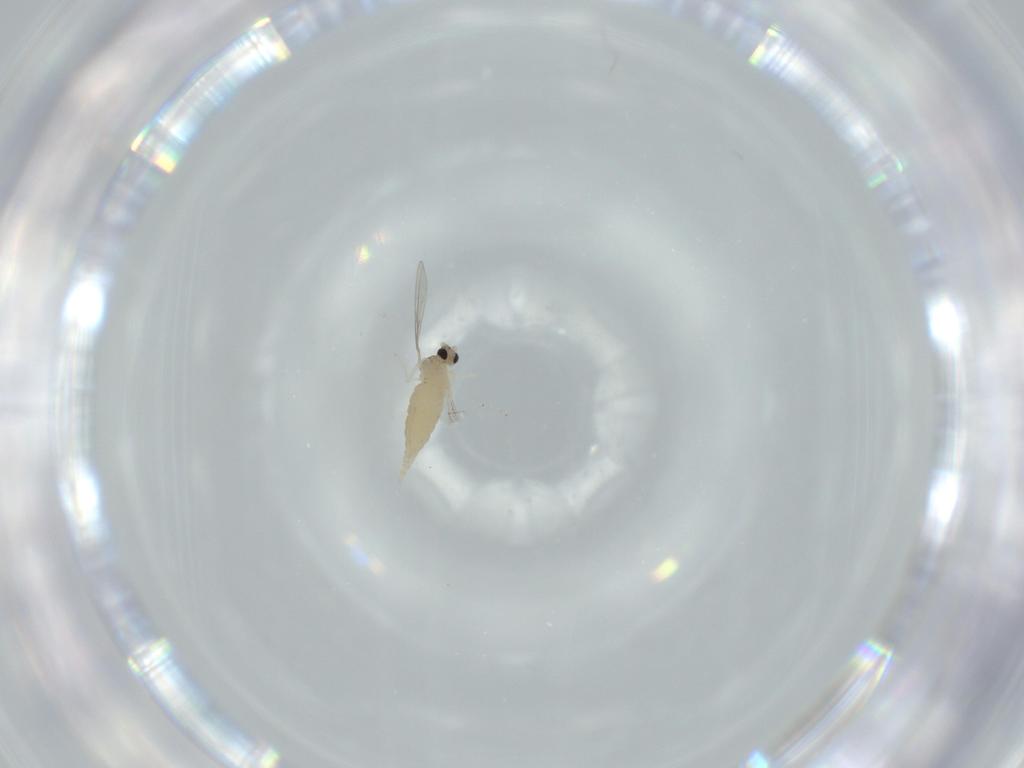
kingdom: Animalia
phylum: Arthropoda
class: Insecta
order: Diptera
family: Cecidomyiidae
